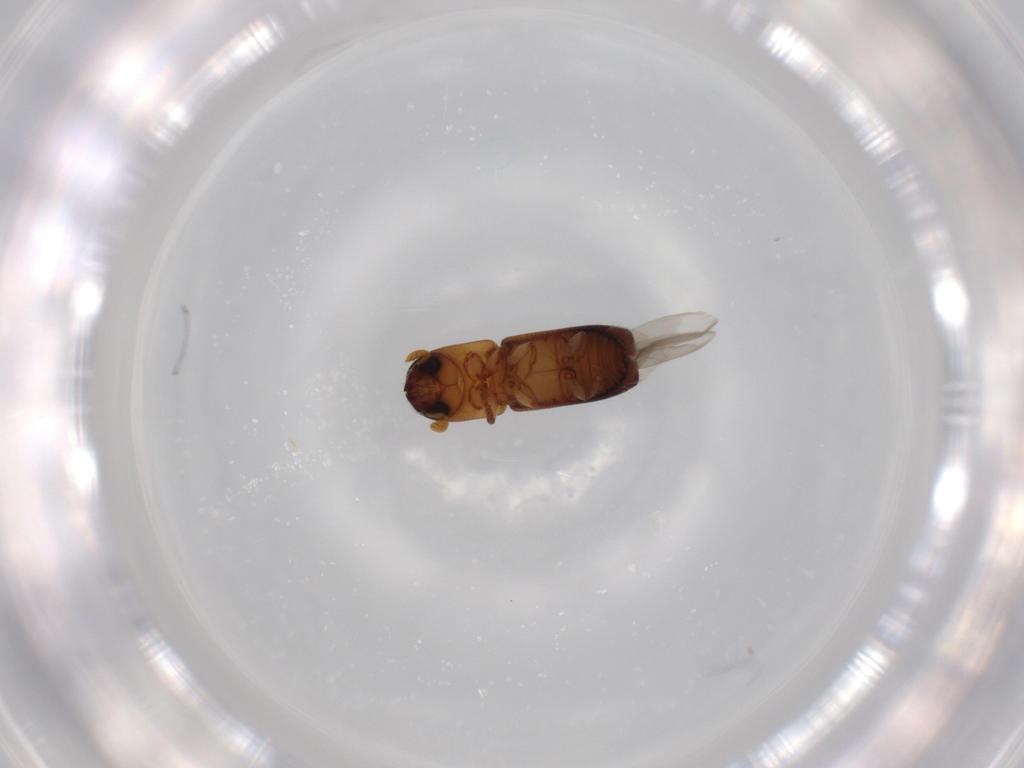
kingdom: Animalia
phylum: Arthropoda
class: Insecta
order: Coleoptera
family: Curculionidae
